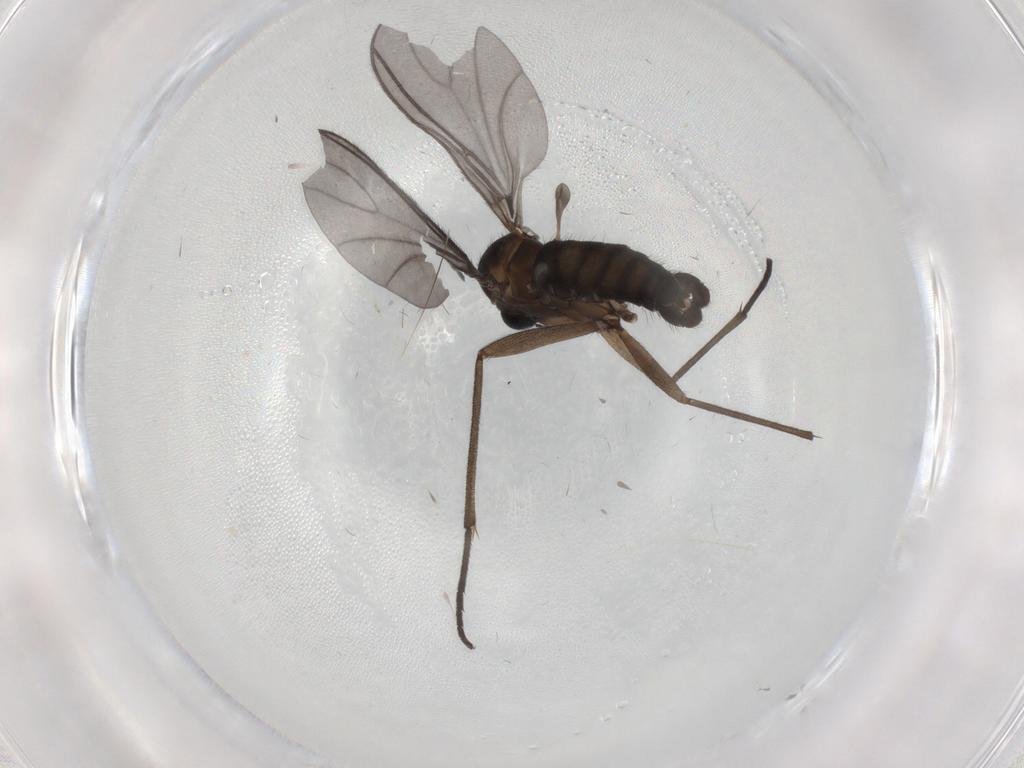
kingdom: Animalia
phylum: Arthropoda
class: Insecta
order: Diptera
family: Sciaridae
